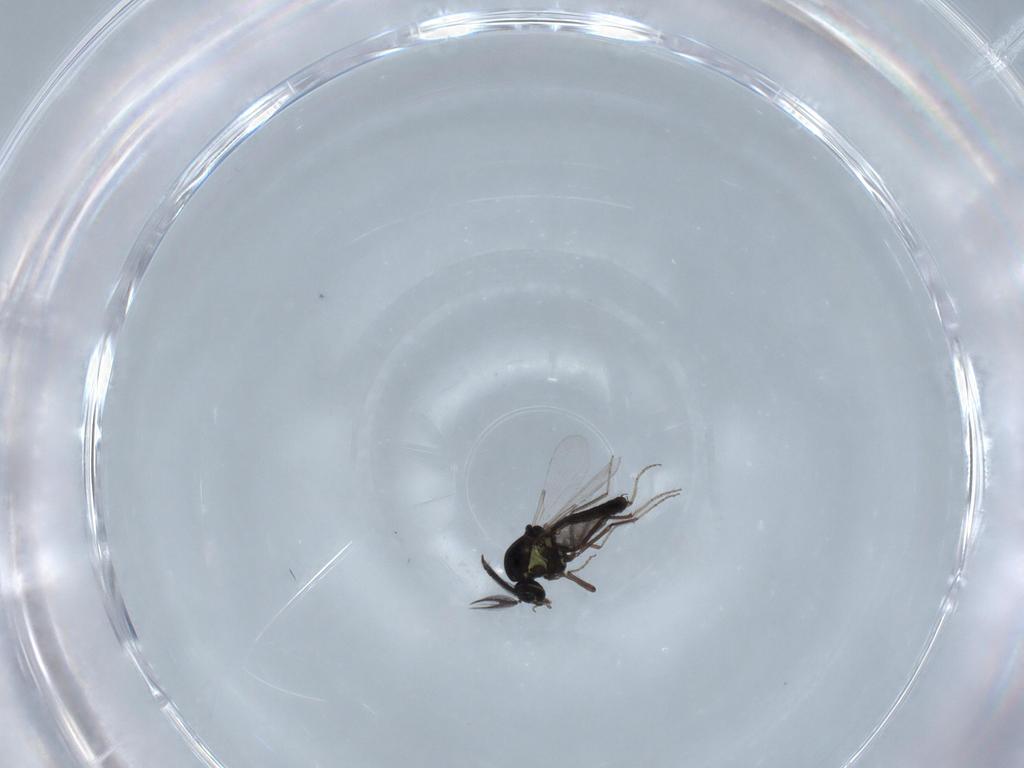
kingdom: Animalia
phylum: Arthropoda
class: Insecta
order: Diptera
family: Ceratopogonidae
